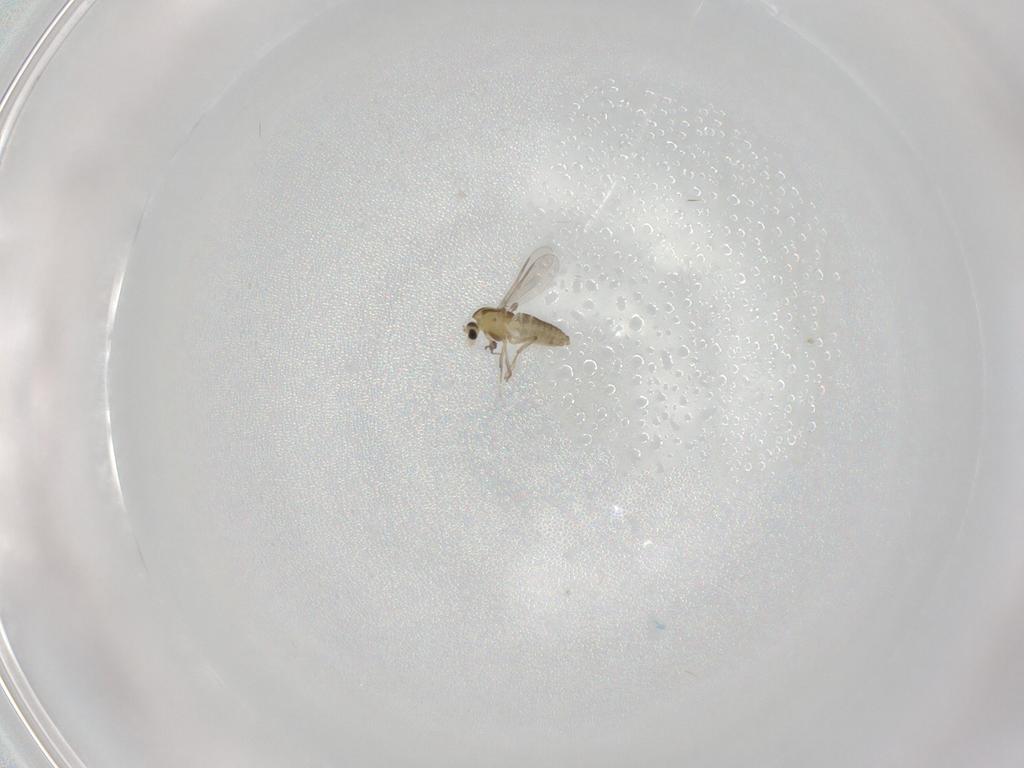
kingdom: Animalia
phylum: Arthropoda
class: Insecta
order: Diptera
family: Chironomidae
